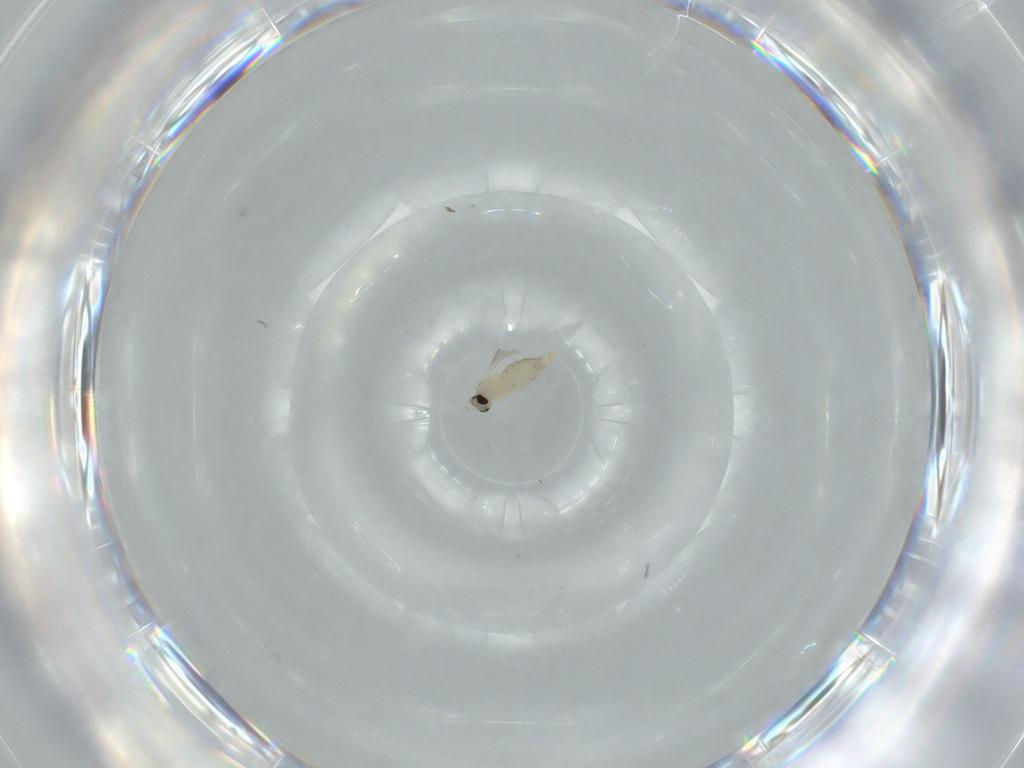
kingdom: Animalia
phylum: Arthropoda
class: Insecta
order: Diptera
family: Cecidomyiidae
